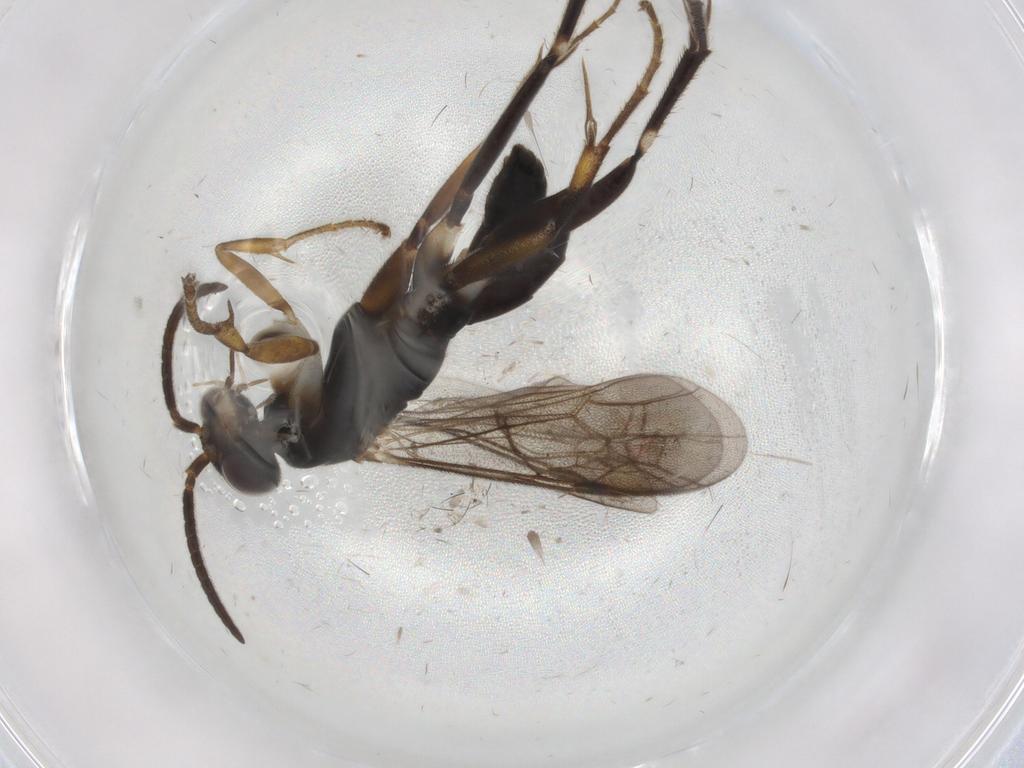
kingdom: Animalia
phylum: Arthropoda
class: Insecta
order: Hymenoptera
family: Pompilidae
